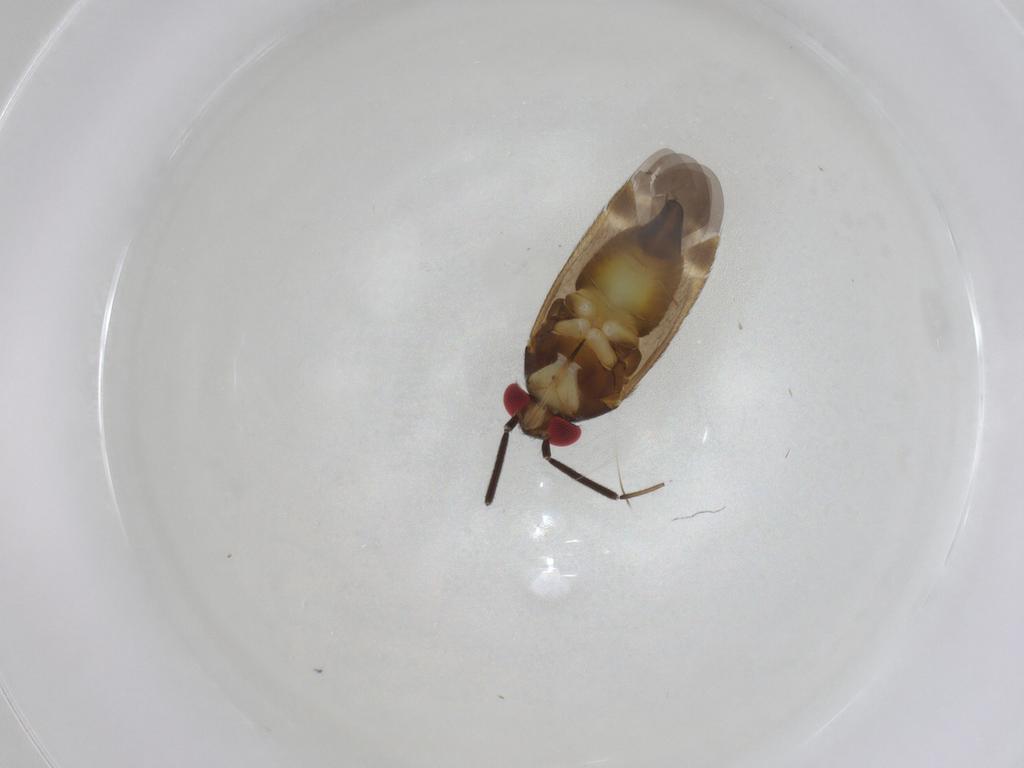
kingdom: Animalia
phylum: Arthropoda
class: Insecta
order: Hemiptera
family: Miridae
